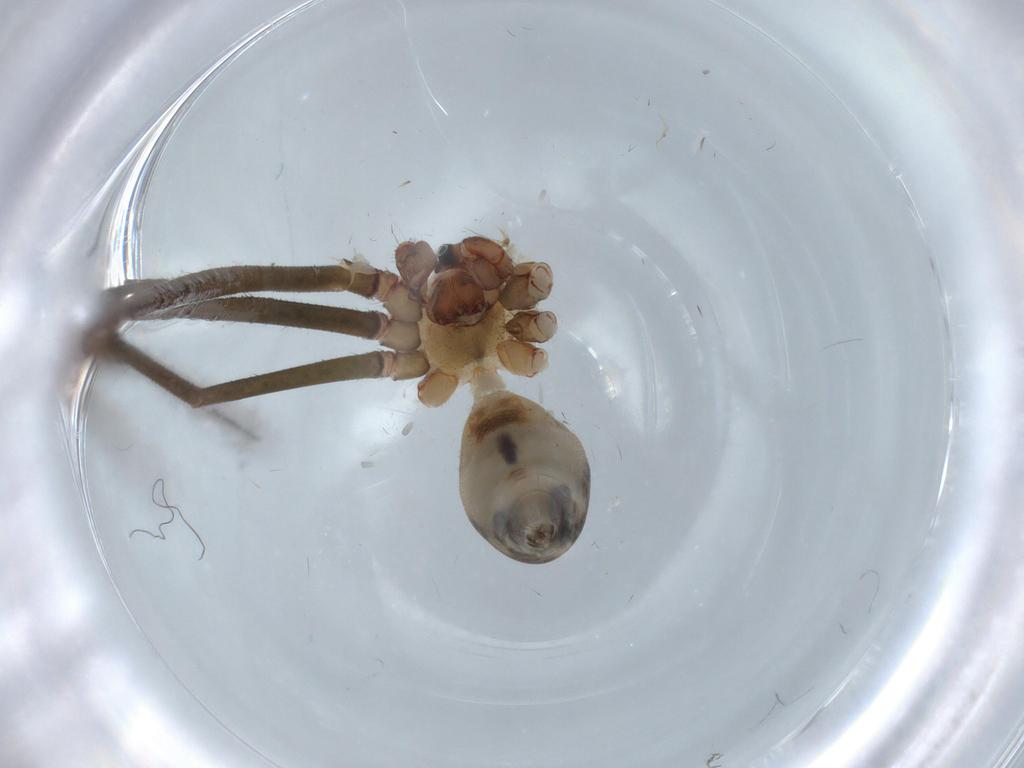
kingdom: Animalia
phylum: Arthropoda
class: Arachnida
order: Araneae
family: Pholcidae
